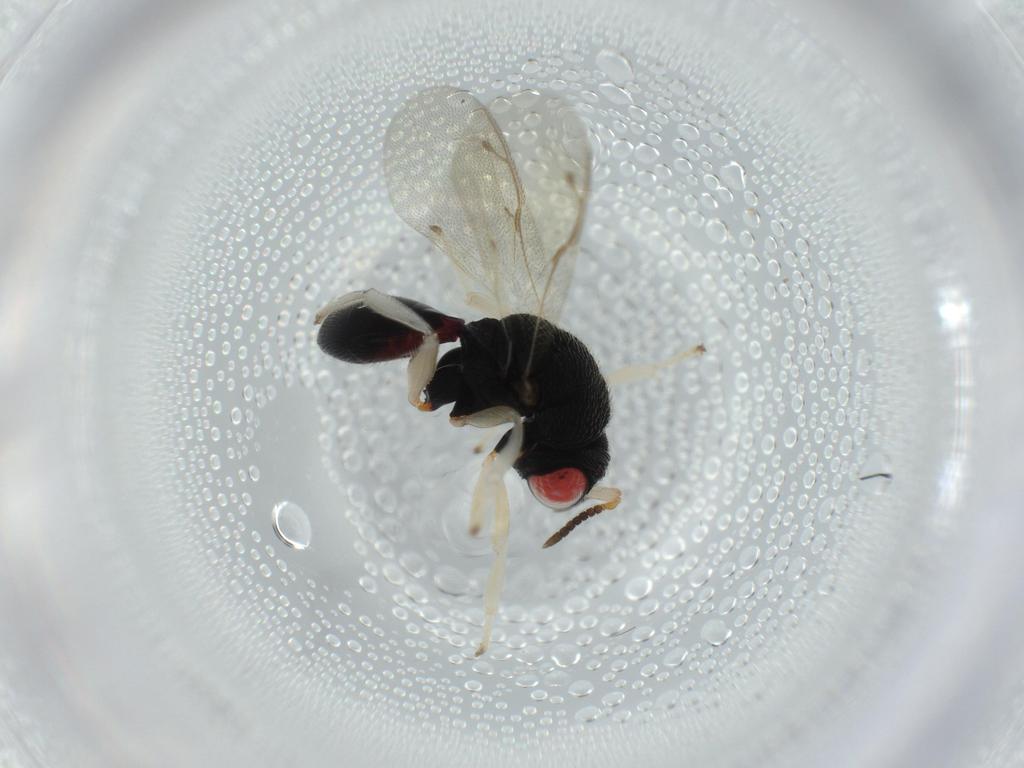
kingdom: Animalia
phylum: Arthropoda
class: Insecta
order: Hymenoptera
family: Eurytomidae
